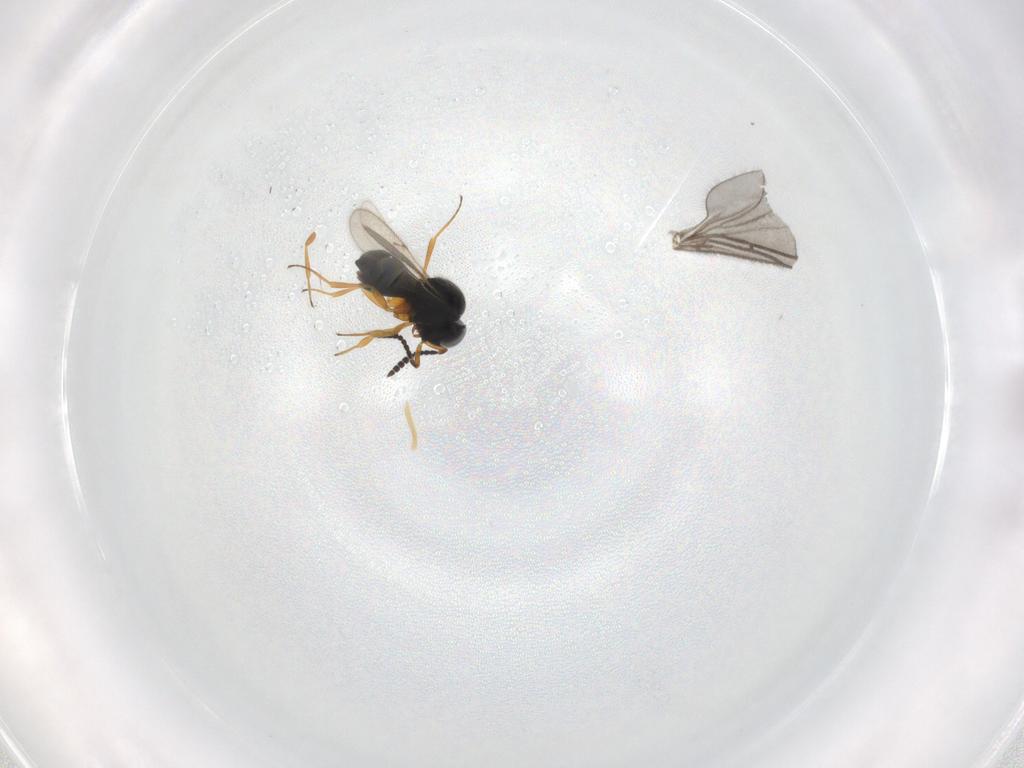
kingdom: Animalia
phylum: Arthropoda
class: Insecta
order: Hymenoptera
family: Scelionidae
